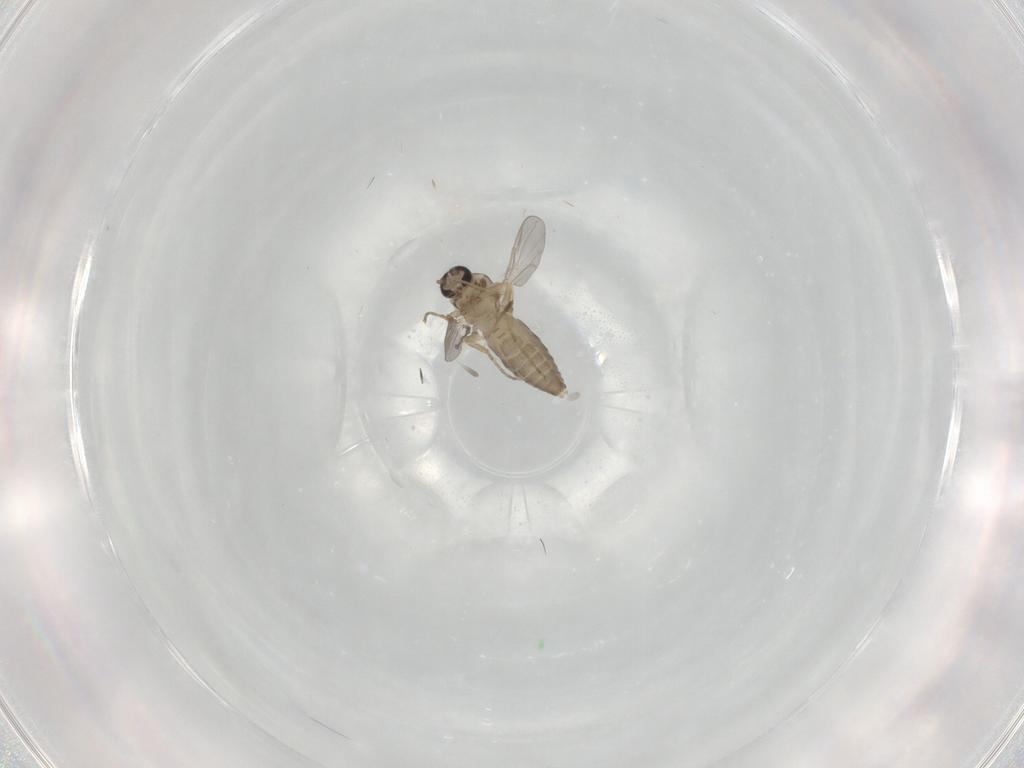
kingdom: Animalia
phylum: Arthropoda
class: Insecta
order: Diptera
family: Ceratopogonidae
